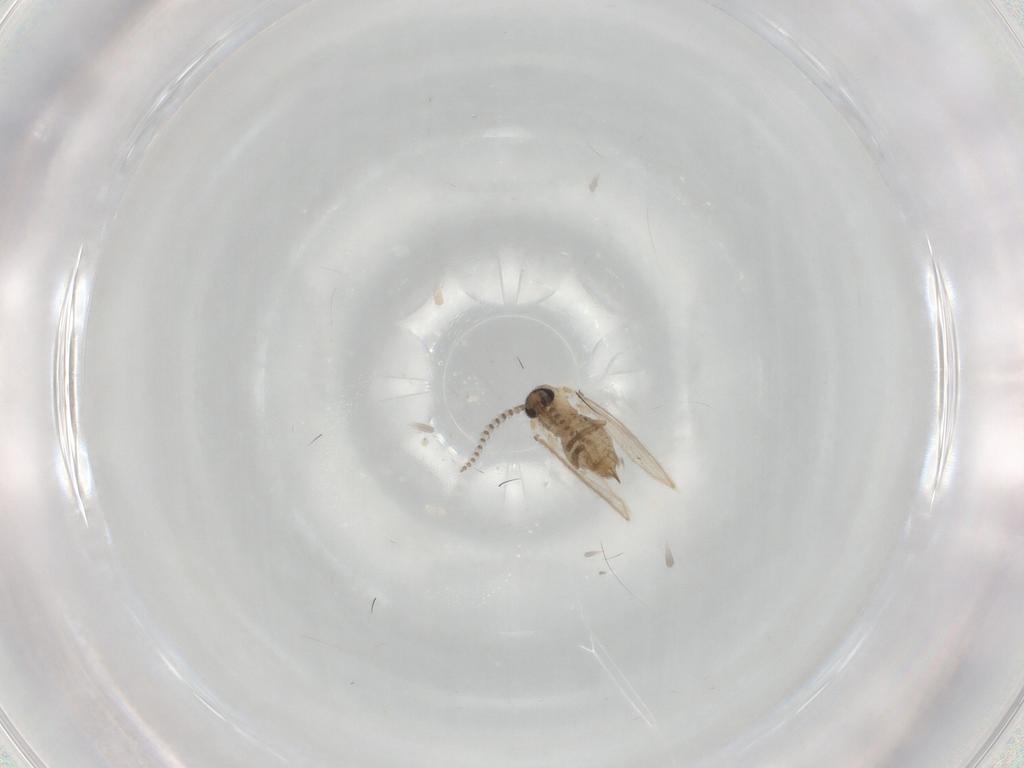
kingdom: Animalia
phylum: Arthropoda
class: Insecta
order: Diptera
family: Psychodidae
